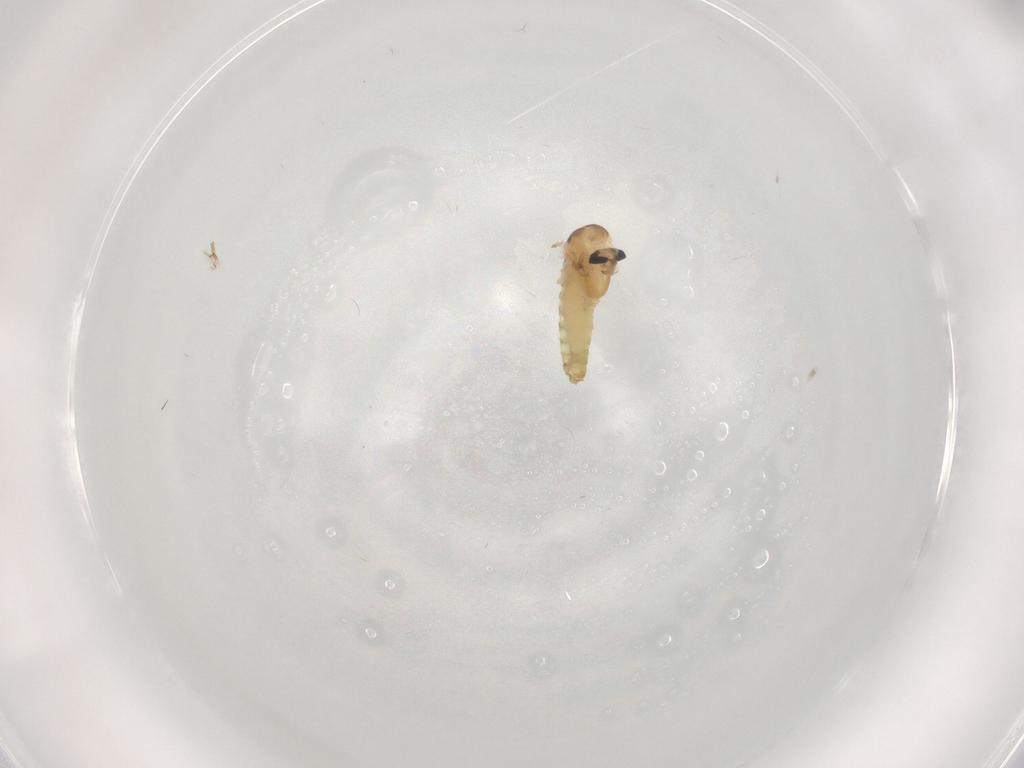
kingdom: Animalia
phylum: Arthropoda
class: Insecta
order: Diptera
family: Chironomidae
